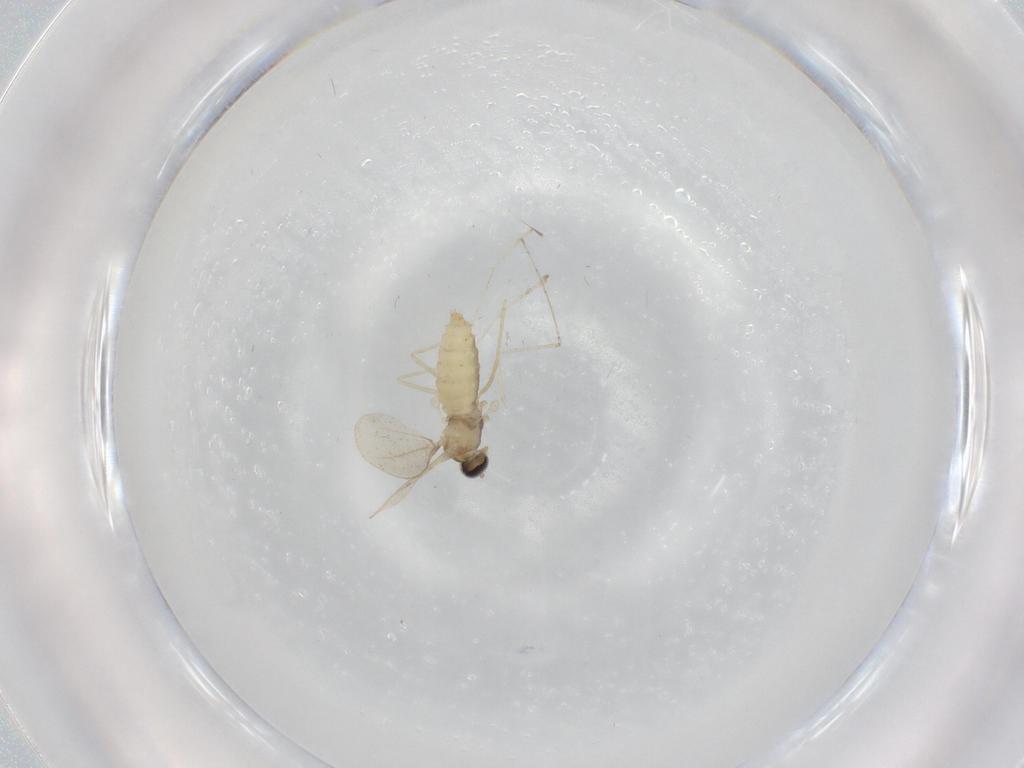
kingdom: Animalia
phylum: Arthropoda
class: Insecta
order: Diptera
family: Cecidomyiidae
